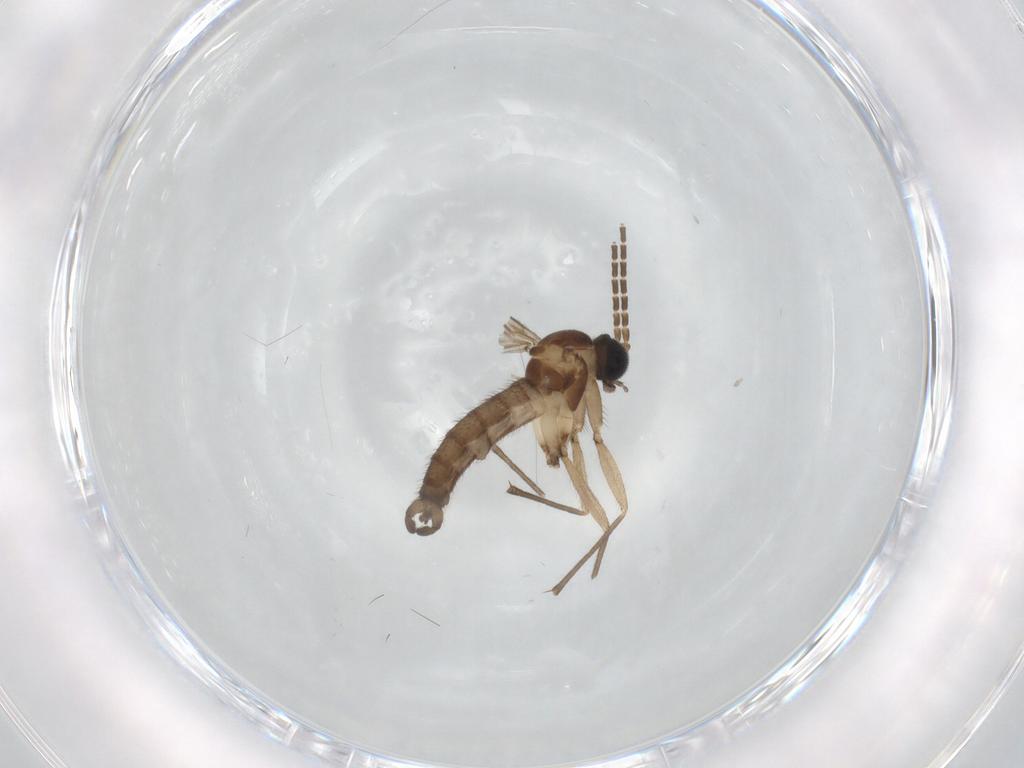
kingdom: Animalia
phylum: Arthropoda
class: Insecta
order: Diptera
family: Sciaridae
